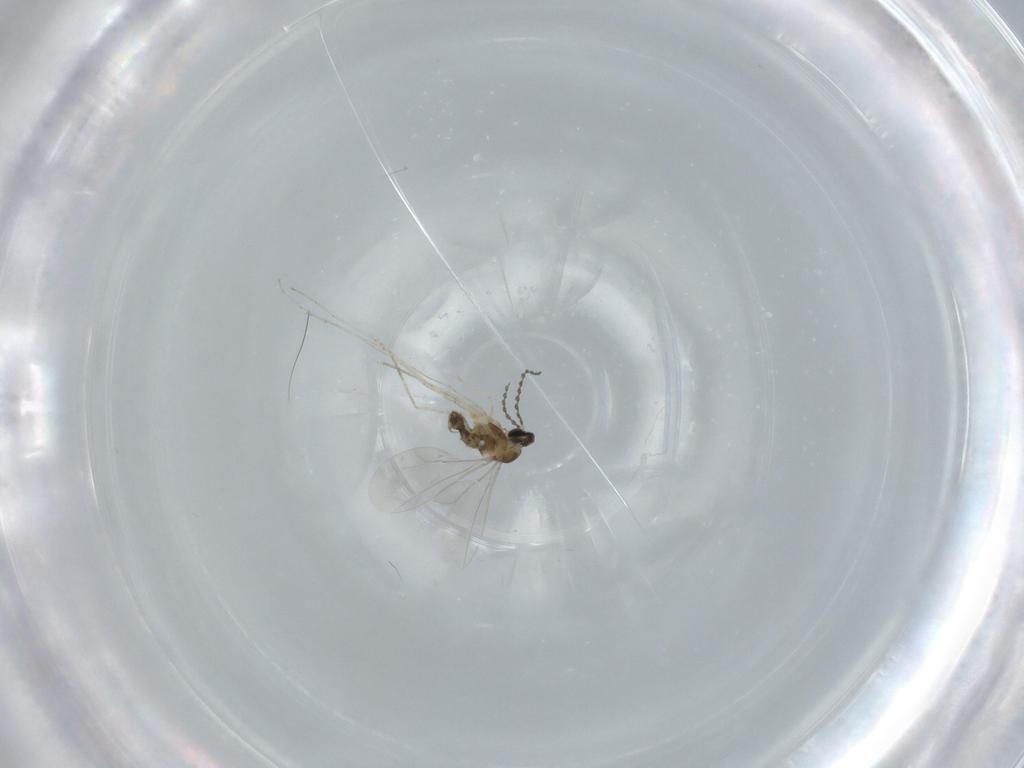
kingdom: Animalia
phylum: Arthropoda
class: Insecta
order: Diptera
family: Cecidomyiidae
